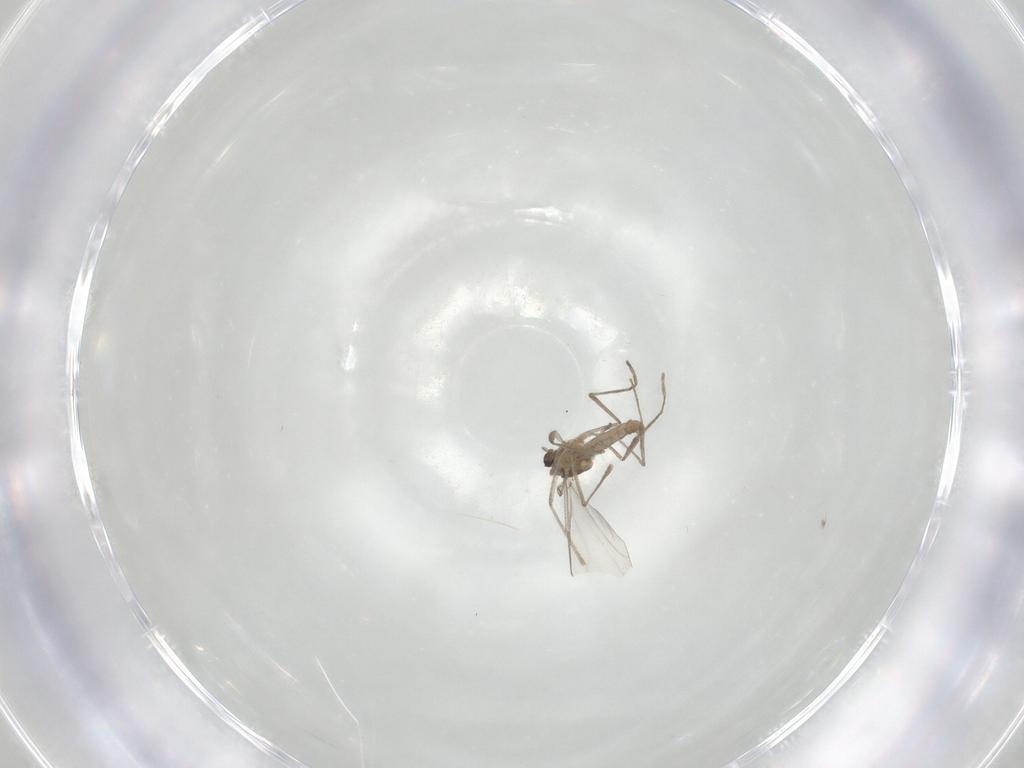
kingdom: Animalia
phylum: Arthropoda
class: Insecta
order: Diptera
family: Cecidomyiidae
